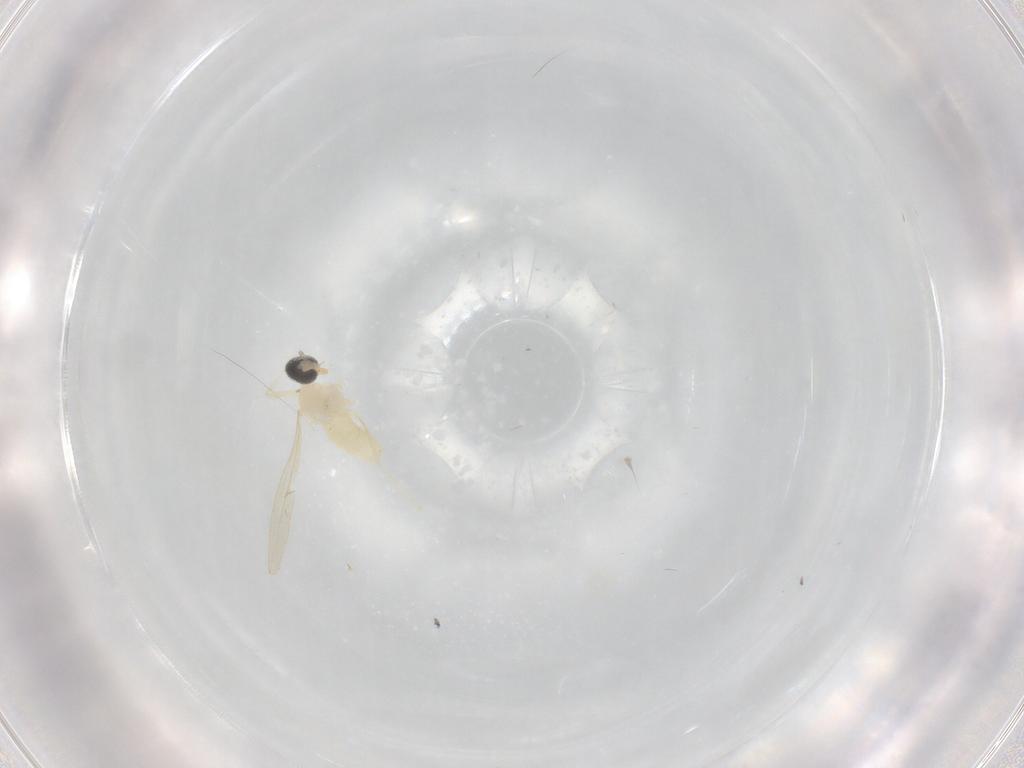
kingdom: Animalia
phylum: Arthropoda
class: Insecta
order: Diptera
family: Cecidomyiidae
